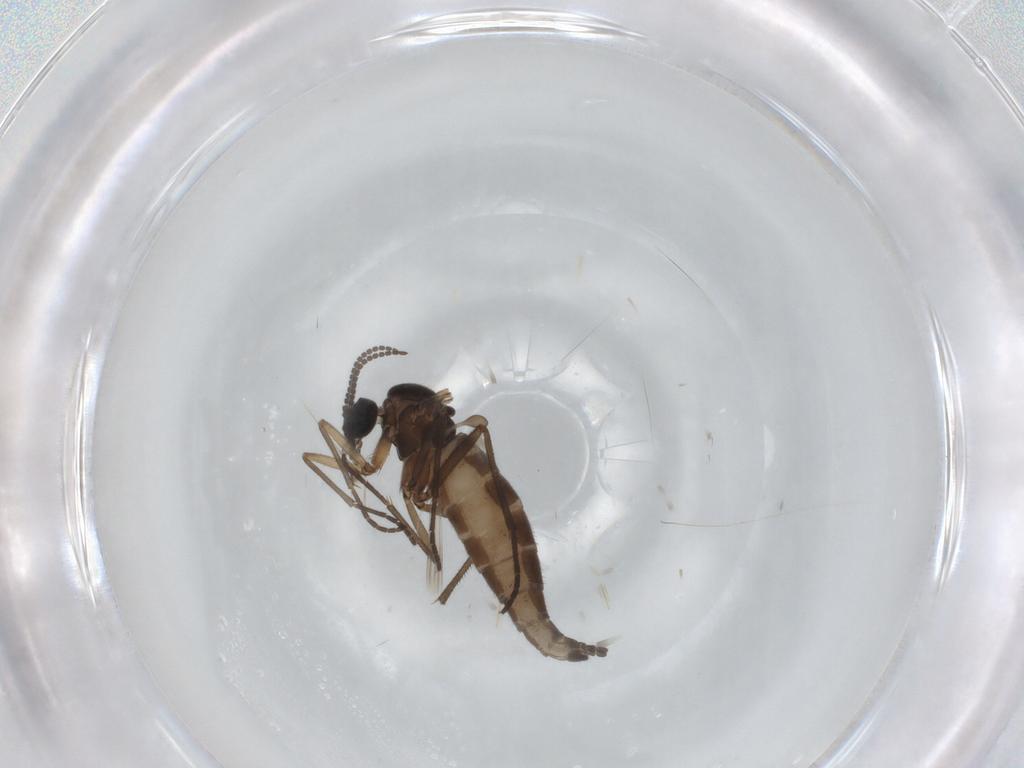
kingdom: Animalia
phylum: Arthropoda
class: Insecta
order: Diptera
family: Sciaridae
